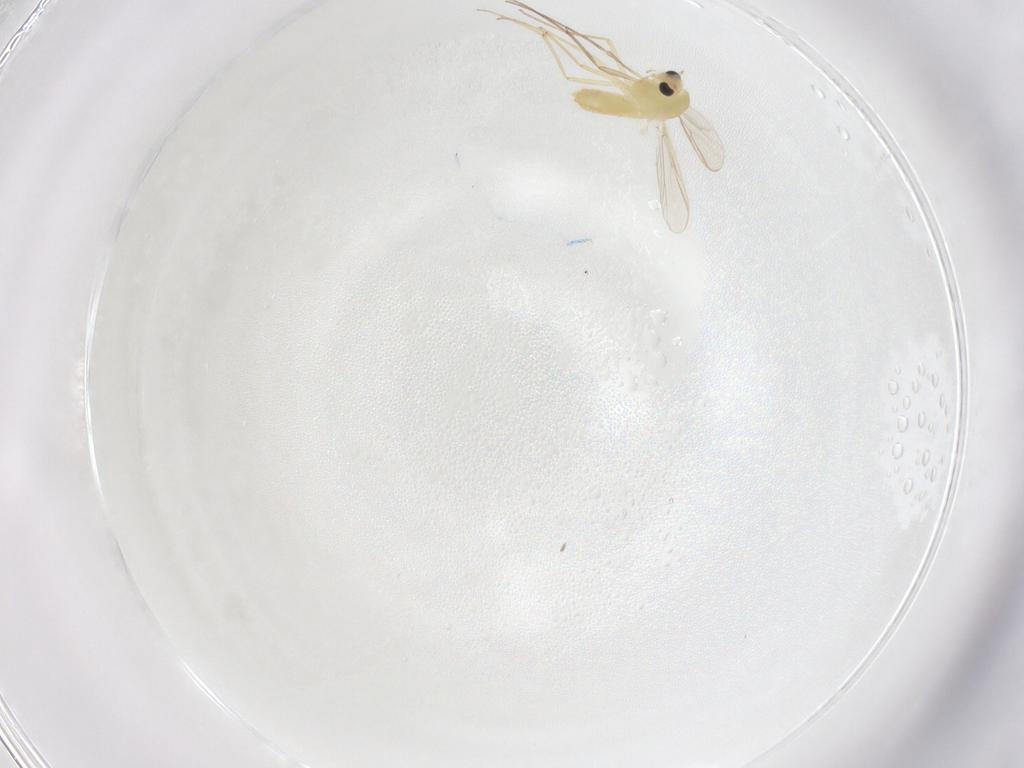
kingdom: Animalia
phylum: Arthropoda
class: Insecta
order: Diptera
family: Chironomidae
